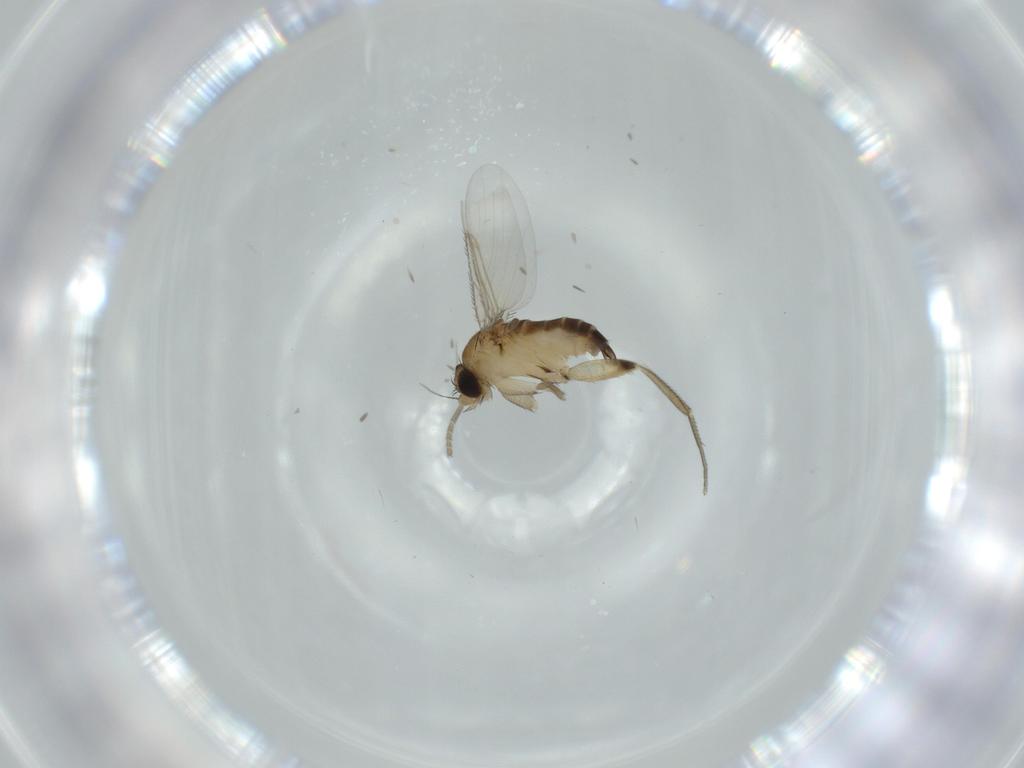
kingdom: Animalia
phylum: Arthropoda
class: Insecta
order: Diptera
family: Phoridae
